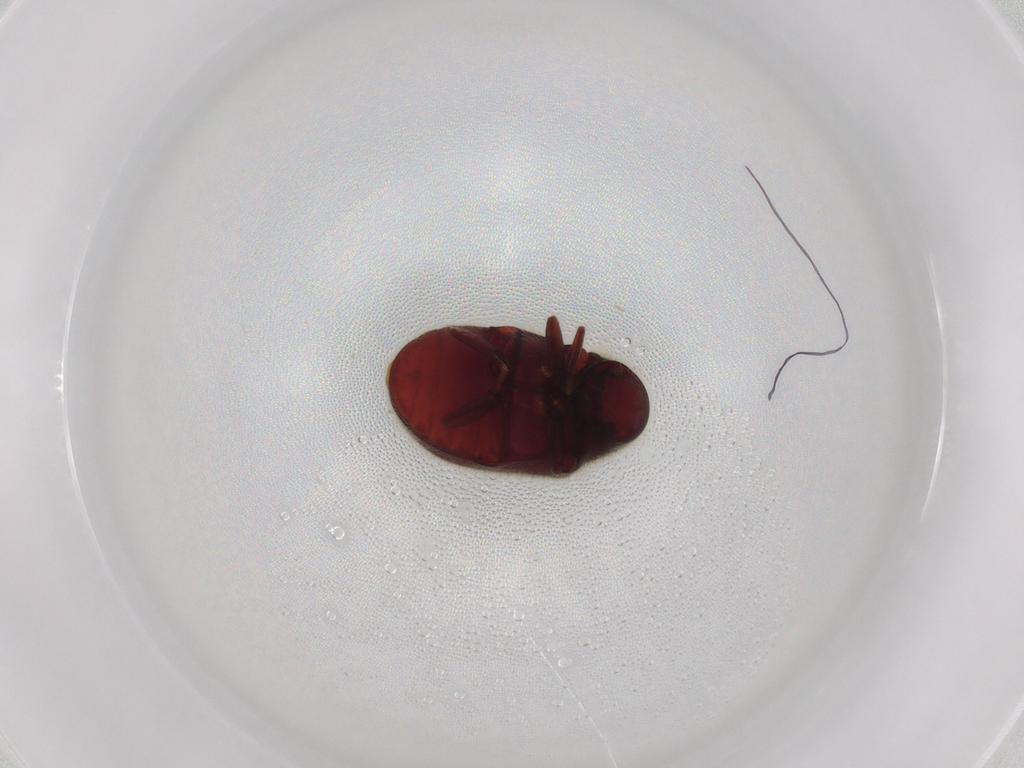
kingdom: Animalia
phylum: Arthropoda
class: Insecta
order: Coleoptera
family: Ptinidae
